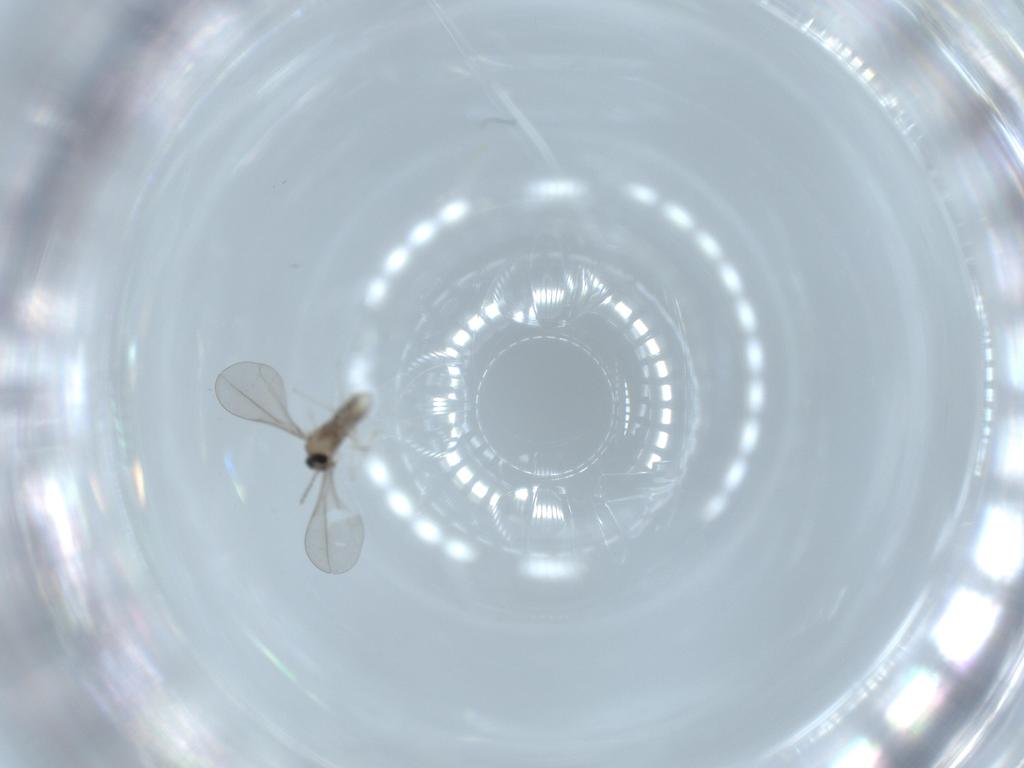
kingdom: Animalia
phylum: Arthropoda
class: Insecta
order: Diptera
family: Cecidomyiidae
